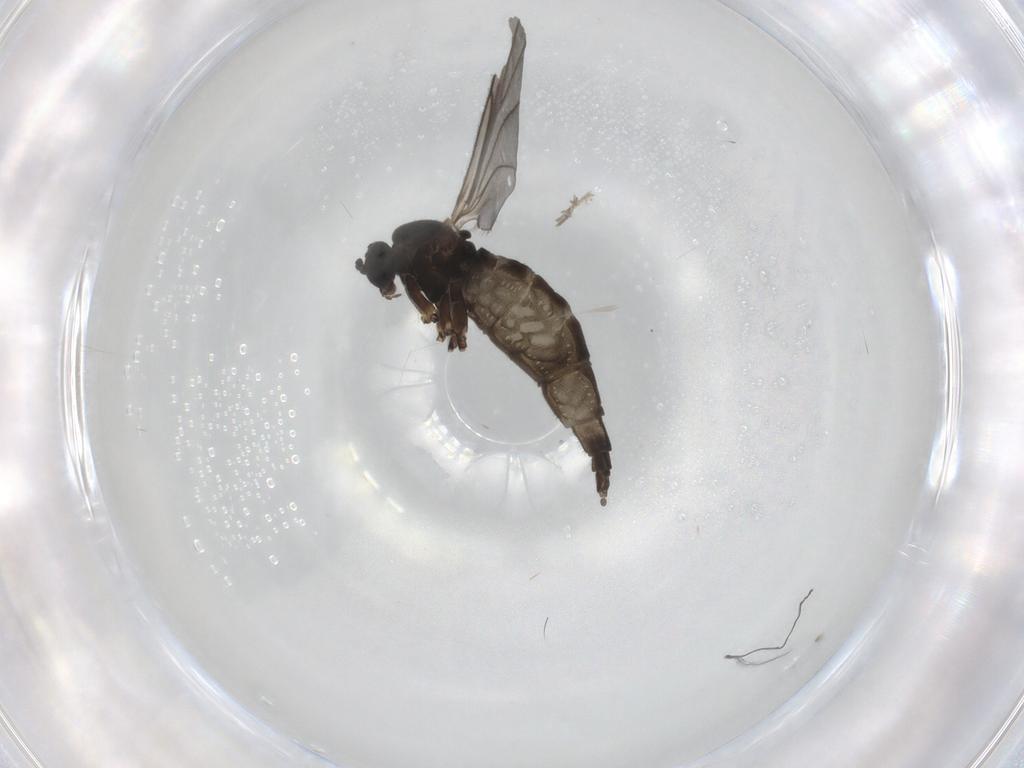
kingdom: Animalia
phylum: Arthropoda
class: Insecta
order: Diptera
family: Sciaridae
